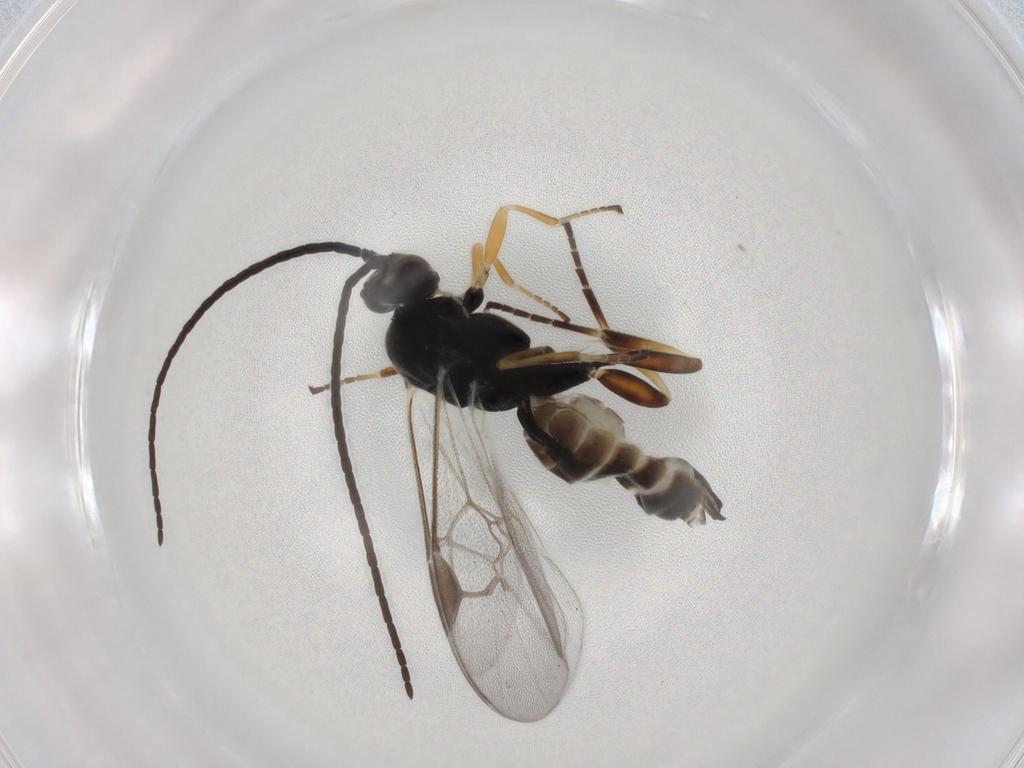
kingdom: Animalia
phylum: Arthropoda
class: Insecta
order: Hymenoptera
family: Braconidae
